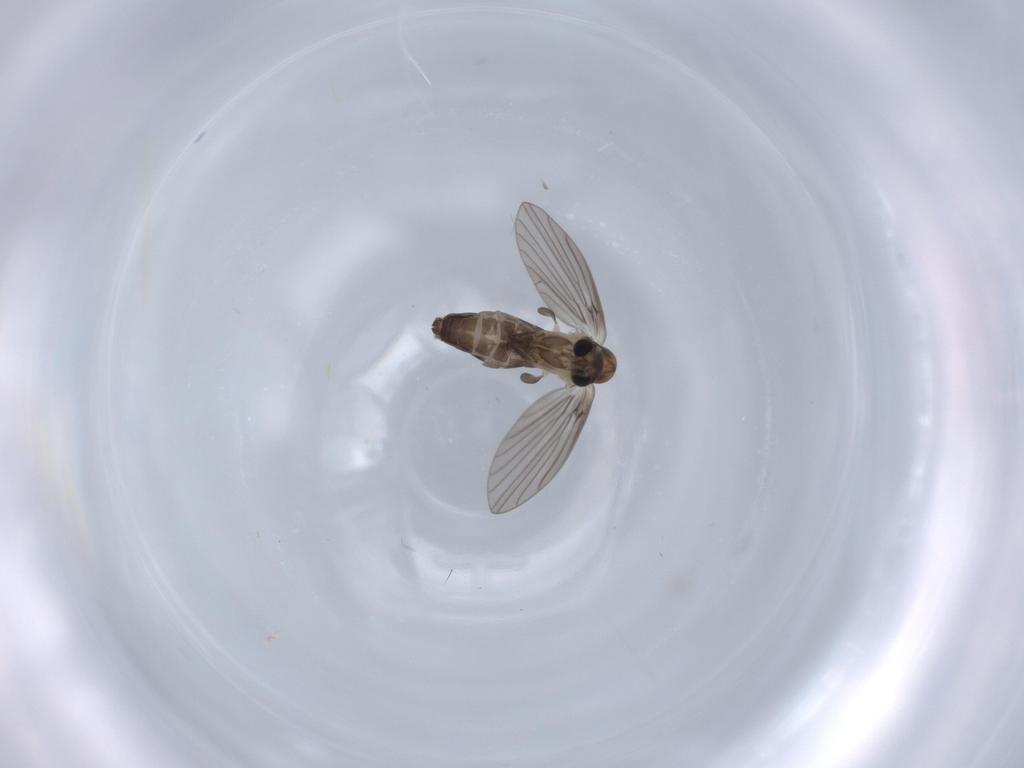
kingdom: Animalia
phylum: Arthropoda
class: Insecta
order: Diptera
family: Psychodidae
